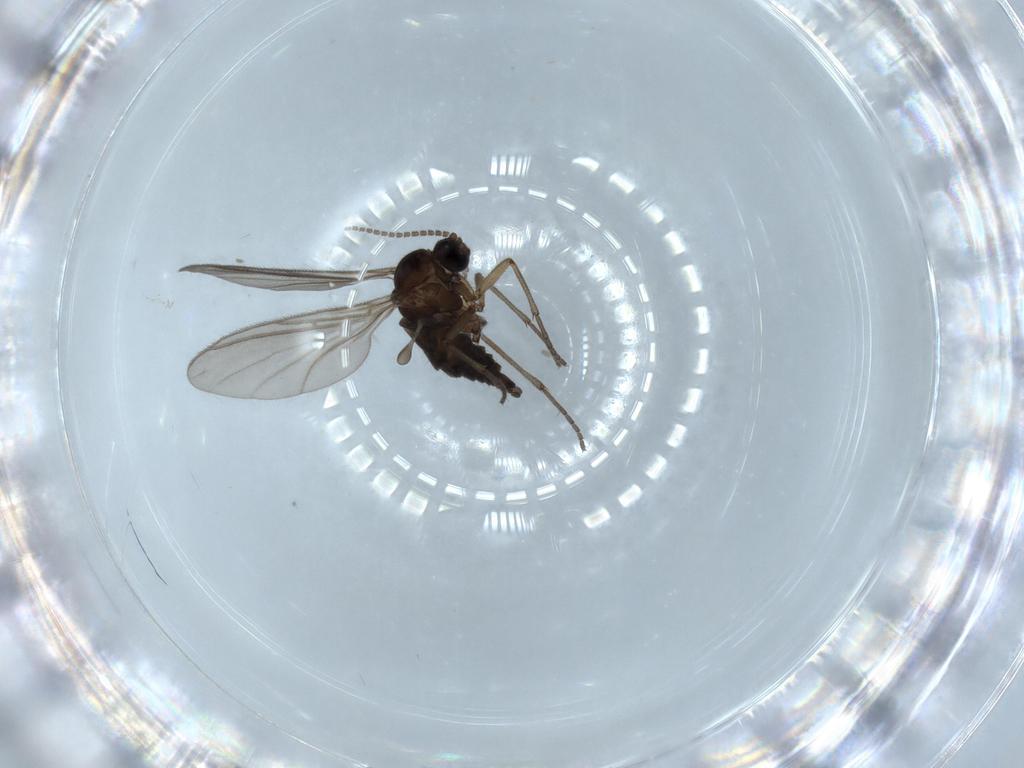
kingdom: Animalia
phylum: Arthropoda
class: Insecta
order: Diptera
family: Sciaridae
